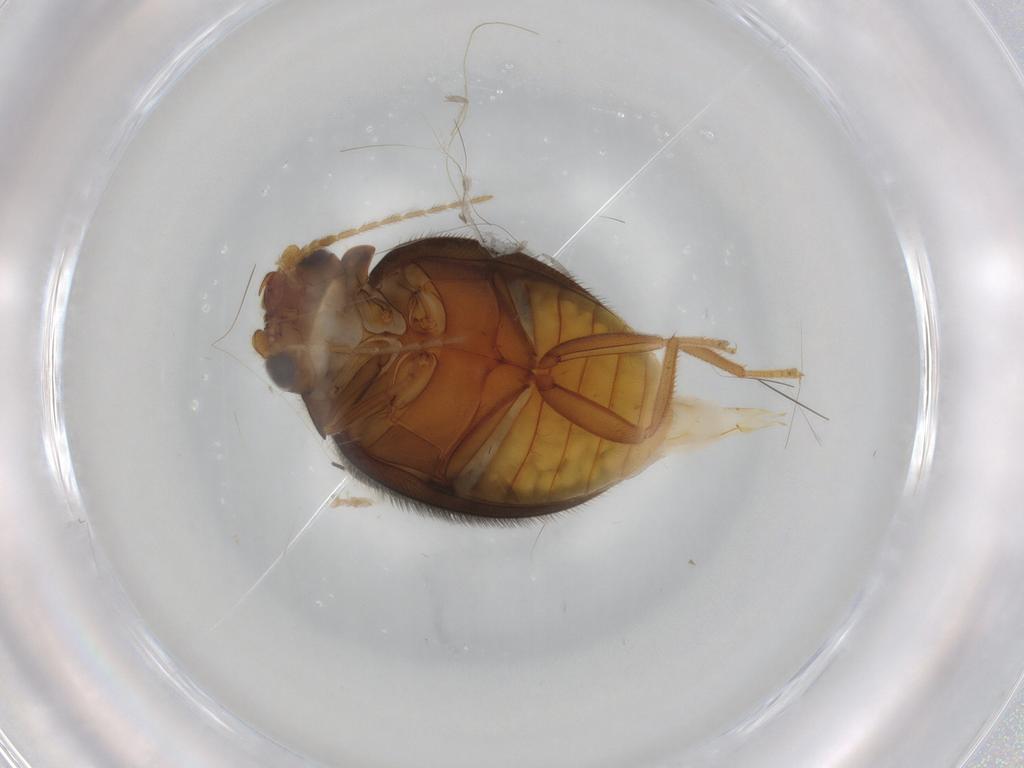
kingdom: Animalia
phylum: Arthropoda
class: Insecta
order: Coleoptera
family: Scirtidae
